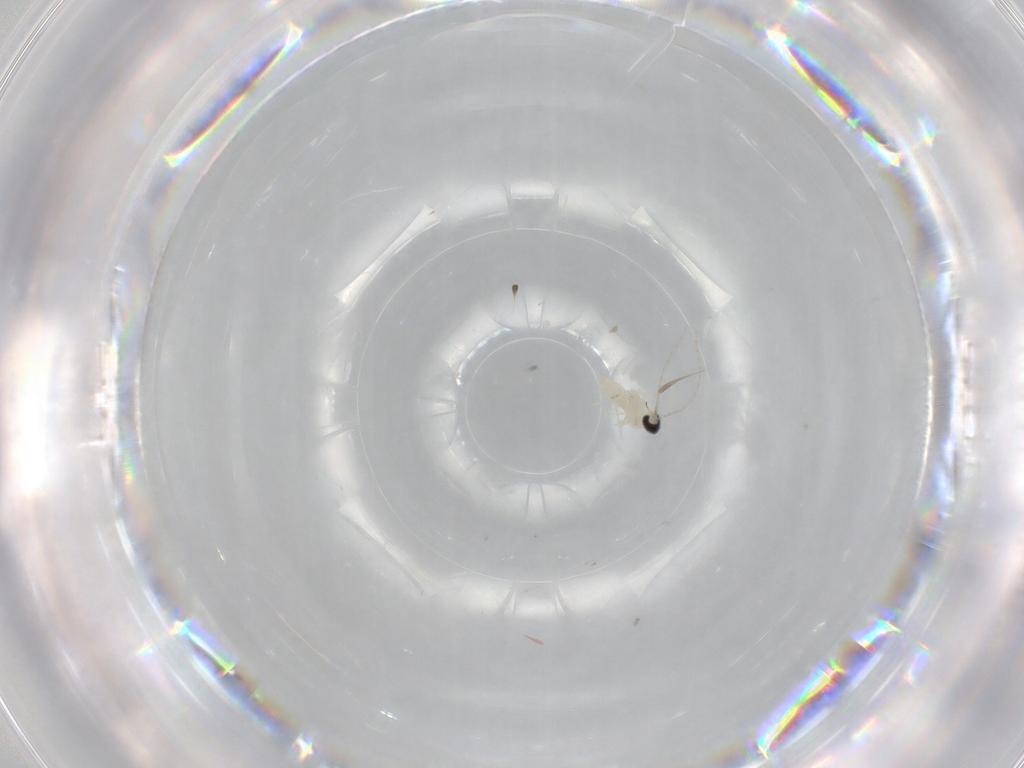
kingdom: Animalia
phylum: Arthropoda
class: Insecta
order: Diptera
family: Cecidomyiidae
